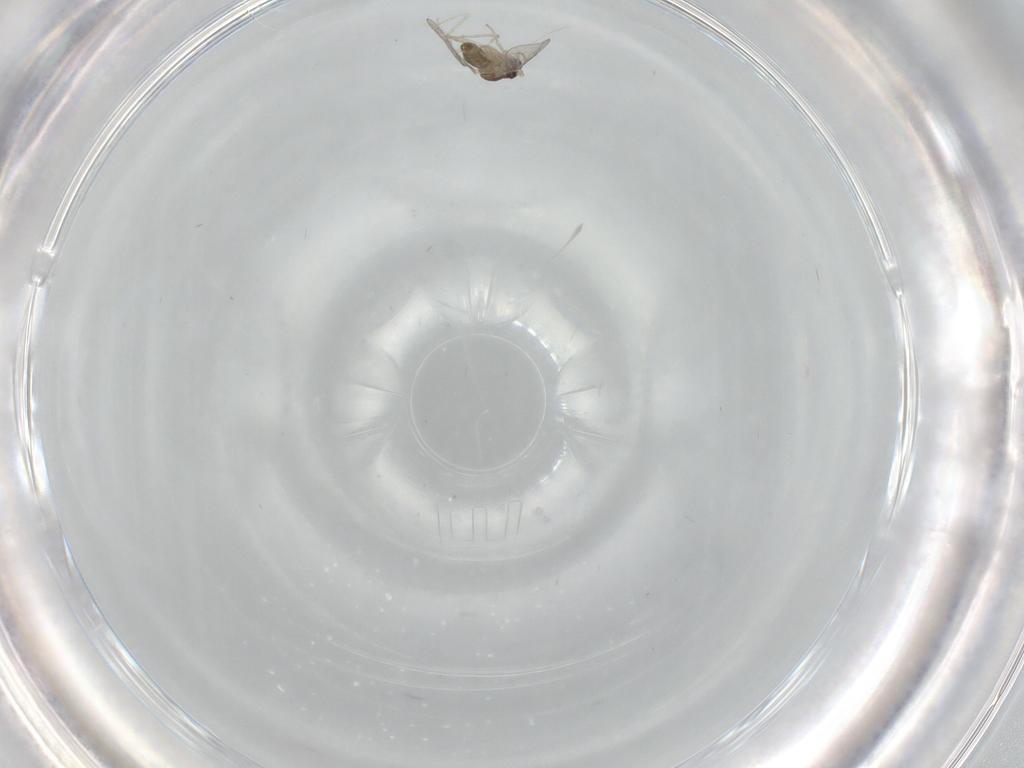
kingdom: Animalia
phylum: Arthropoda
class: Insecta
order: Diptera
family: Cecidomyiidae
